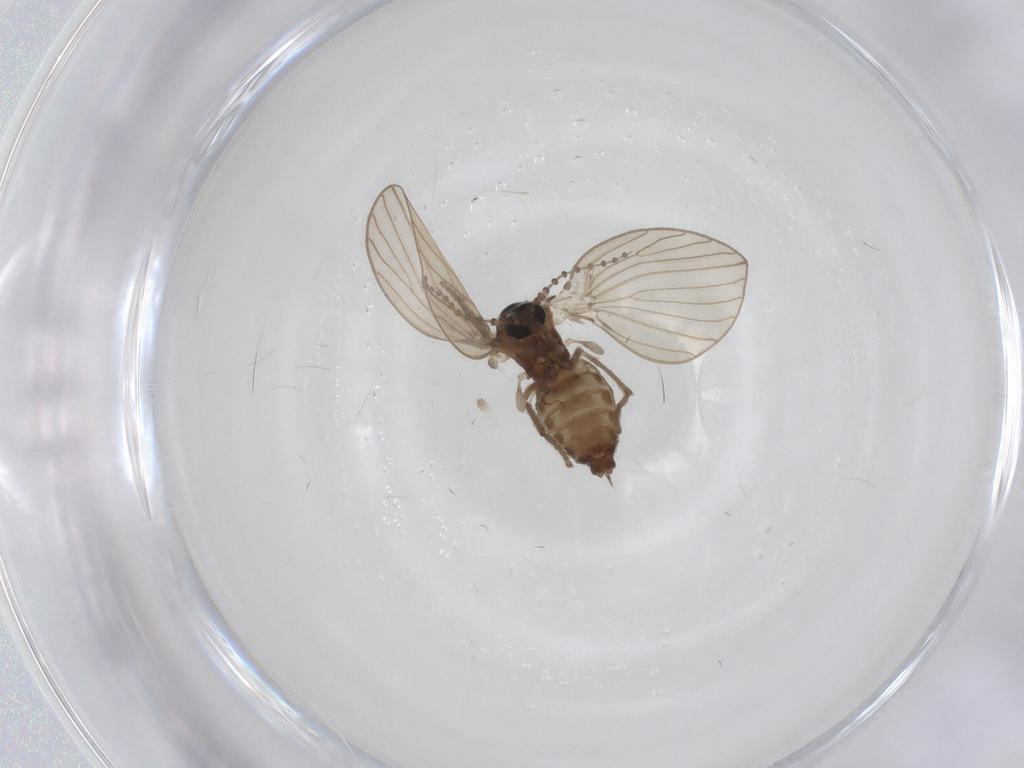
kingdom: Animalia
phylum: Arthropoda
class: Insecta
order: Diptera
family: Psychodidae
